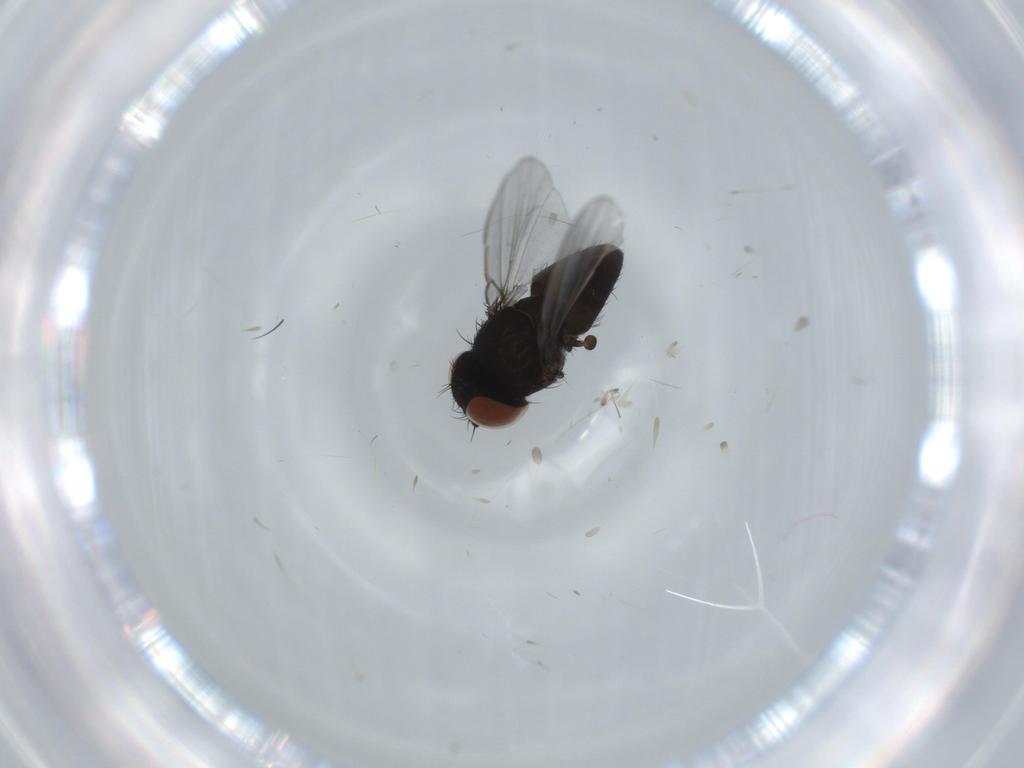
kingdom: Animalia
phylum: Arthropoda
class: Insecta
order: Diptera
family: Milichiidae
